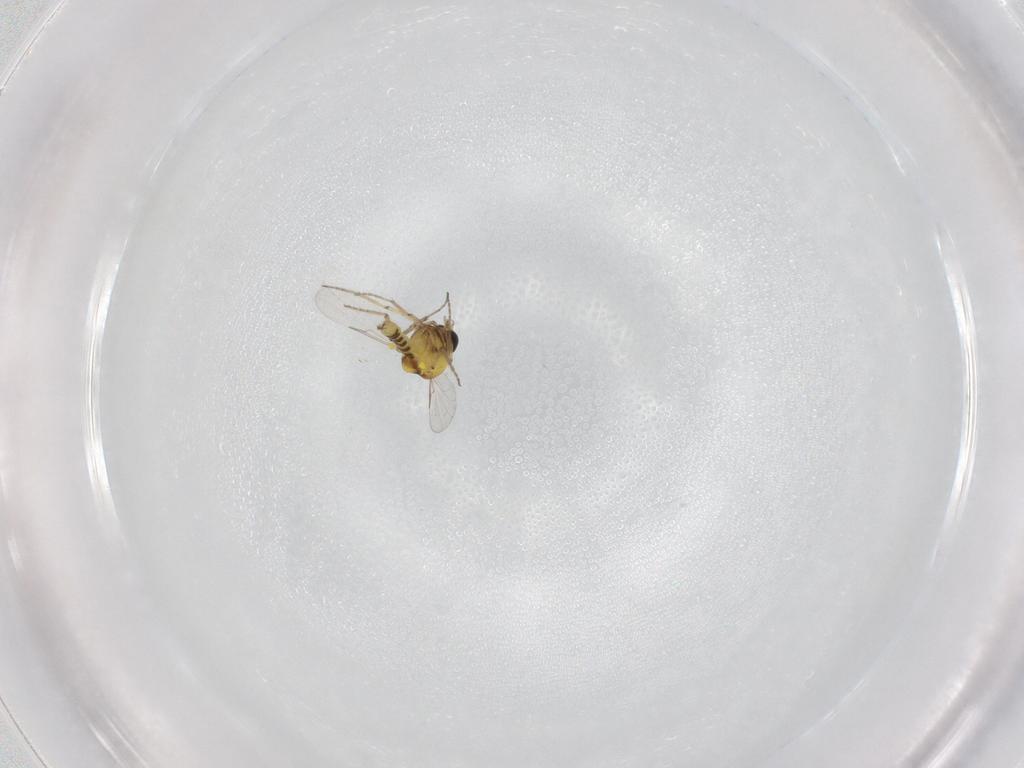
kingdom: Animalia
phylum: Arthropoda
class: Insecta
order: Diptera
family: Ceratopogonidae
